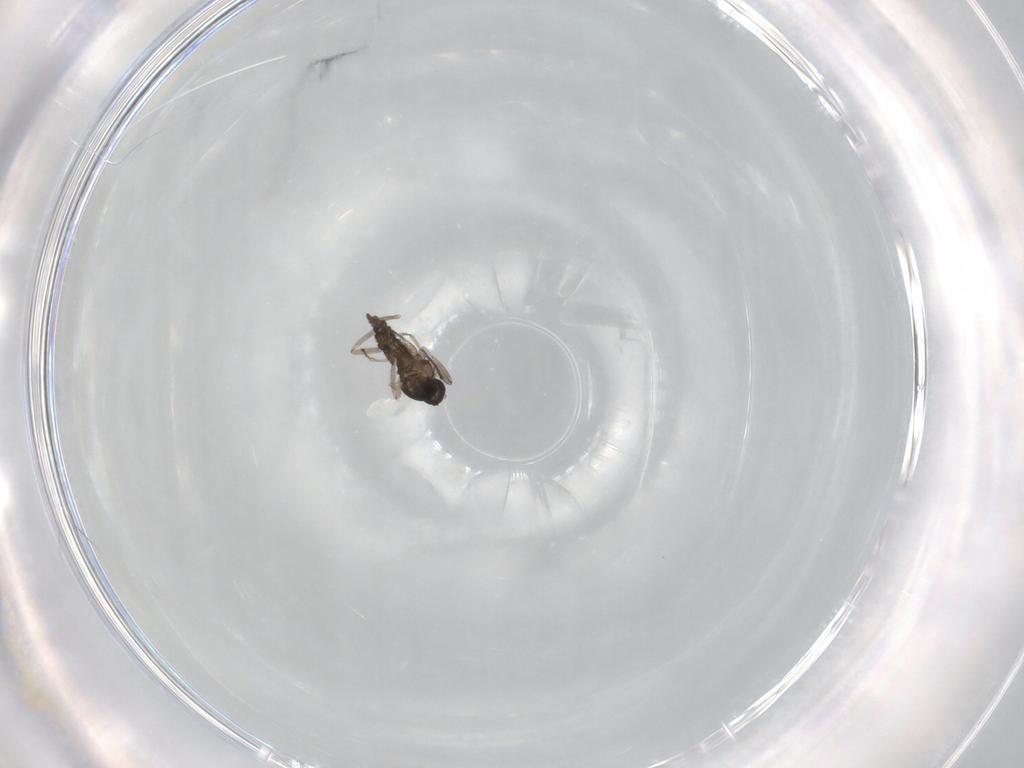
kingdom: Animalia
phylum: Arthropoda
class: Insecta
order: Diptera
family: Cecidomyiidae
